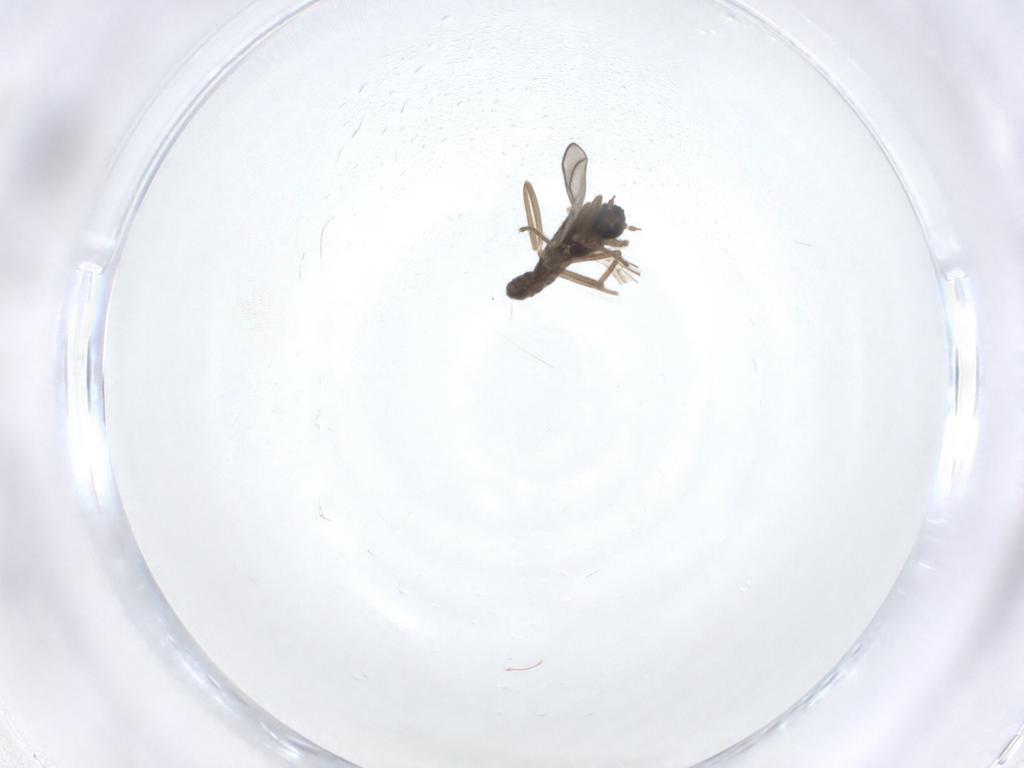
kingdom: Animalia
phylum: Arthropoda
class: Insecta
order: Diptera
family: Cecidomyiidae
